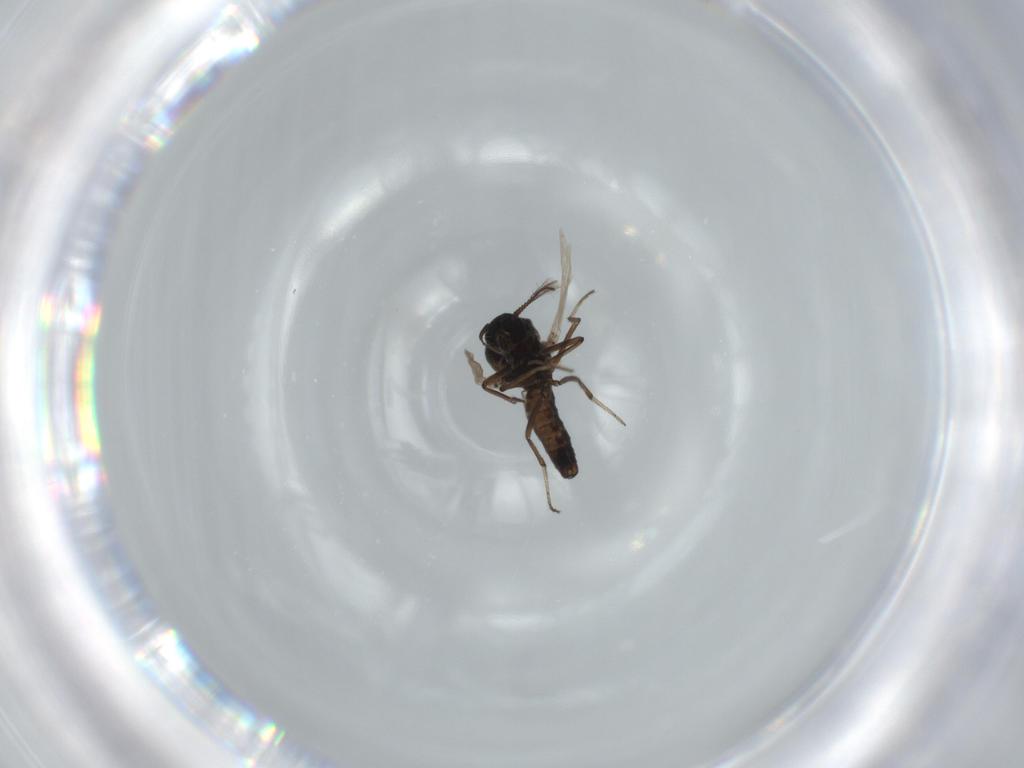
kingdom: Animalia
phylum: Arthropoda
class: Insecta
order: Diptera
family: Ceratopogonidae
